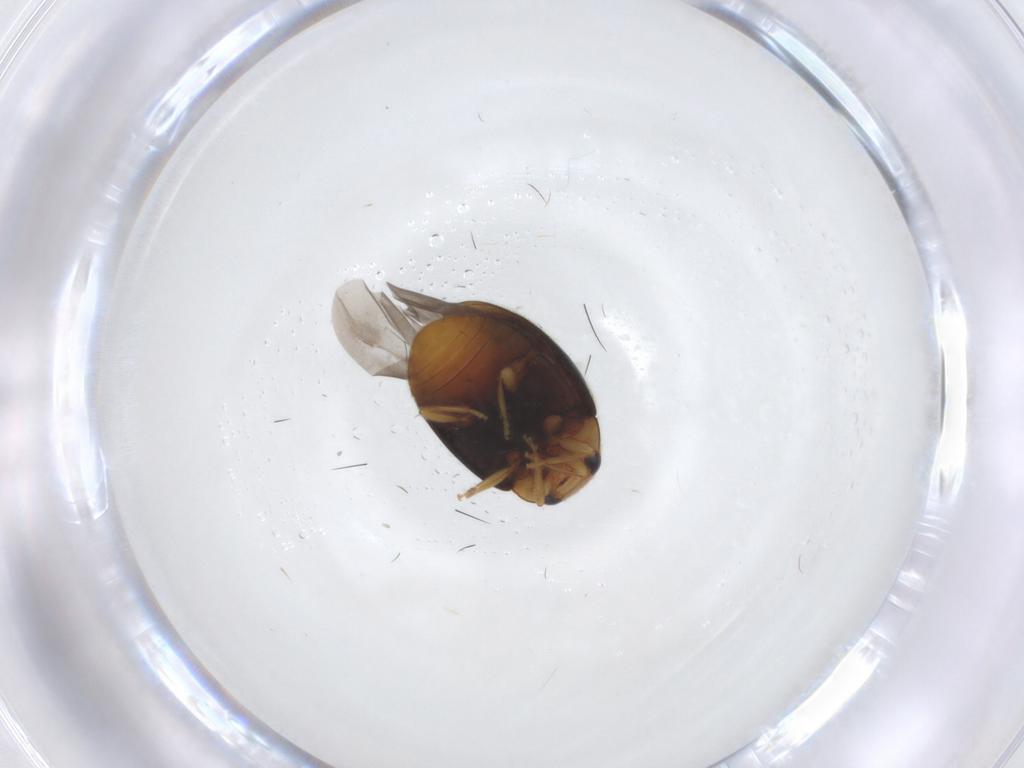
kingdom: Animalia
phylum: Arthropoda
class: Insecta
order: Coleoptera
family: Coccinellidae
